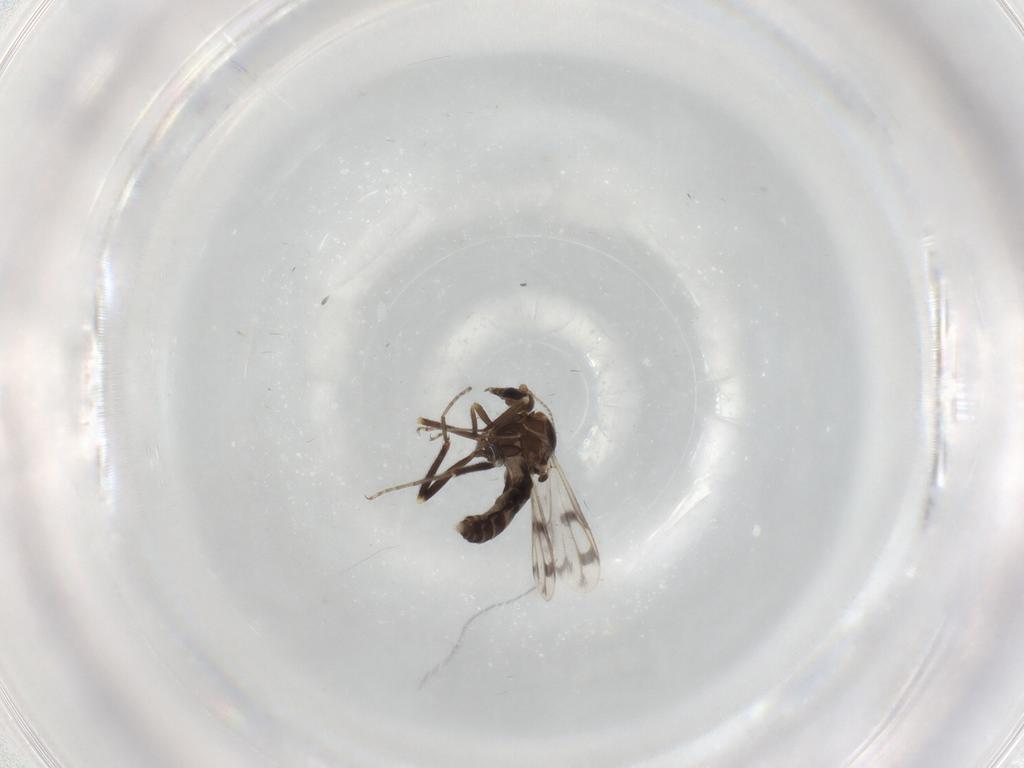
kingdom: Animalia
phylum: Arthropoda
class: Insecta
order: Diptera
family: Ceratopogonidae
